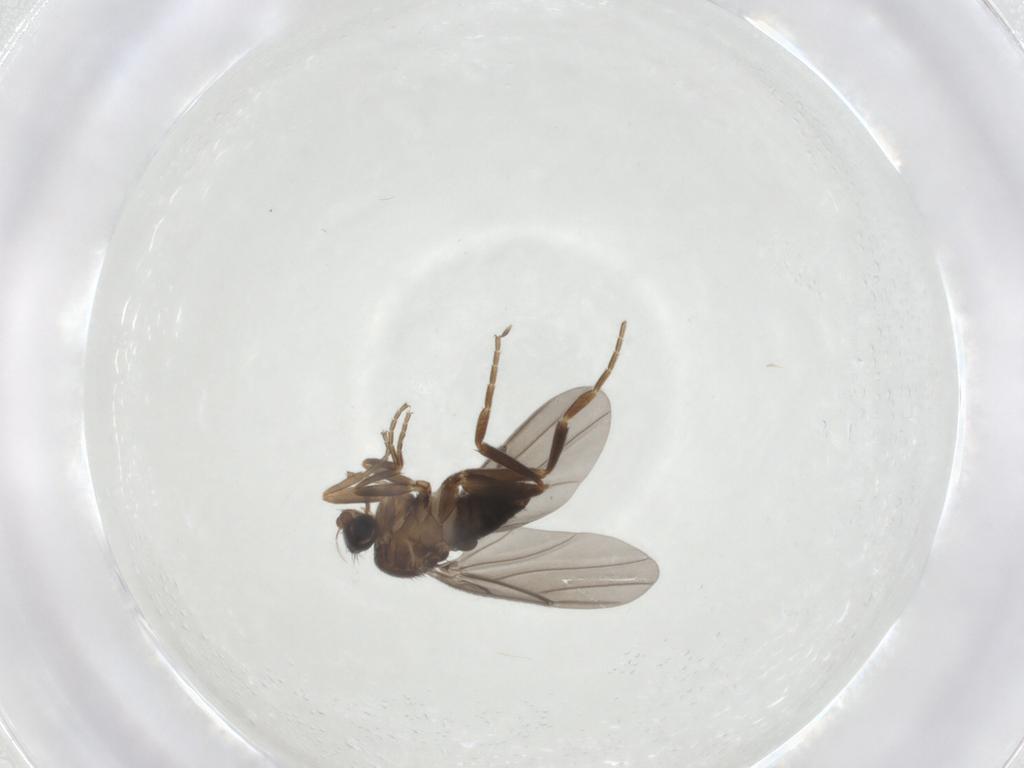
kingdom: Animalia
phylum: Arthropoda
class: Insecta
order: Diptera
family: Phoridae
